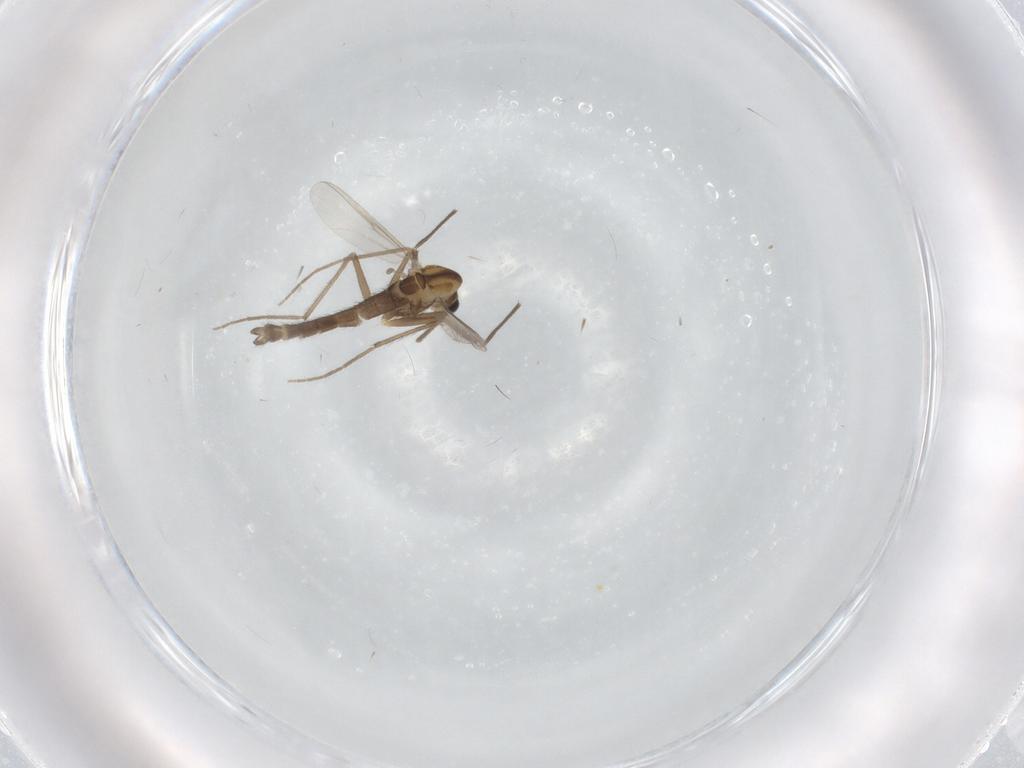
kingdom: Animalia
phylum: Arthropoda
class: Insecta
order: Diptera
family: Chironomidae
